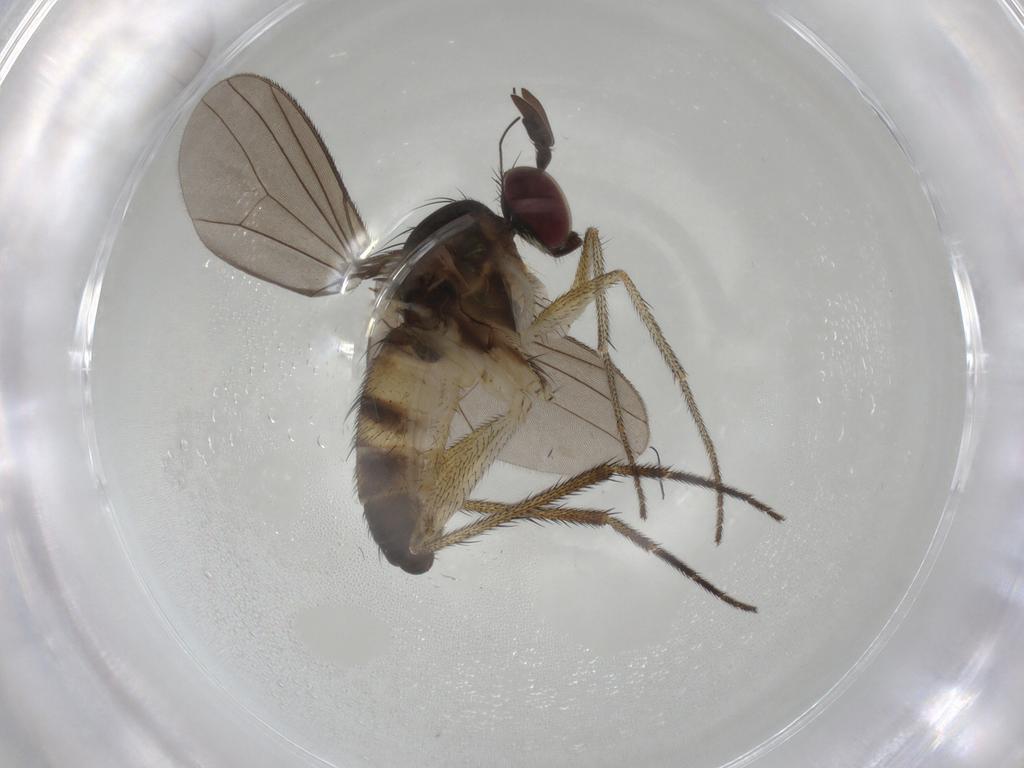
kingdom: Animalia
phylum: Arthropoda
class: Insecta
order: Diptera
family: Dolichopodidae
